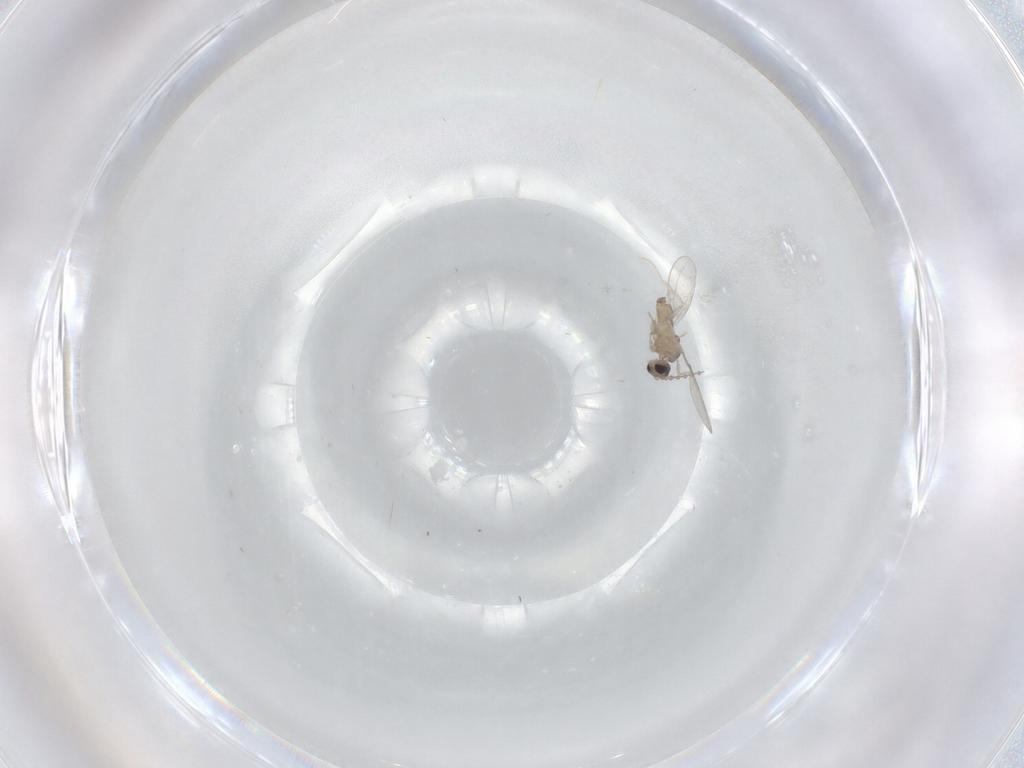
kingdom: Animalia
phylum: Arthropoda
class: Insecta
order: Diptera
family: Cecidomyiidae
